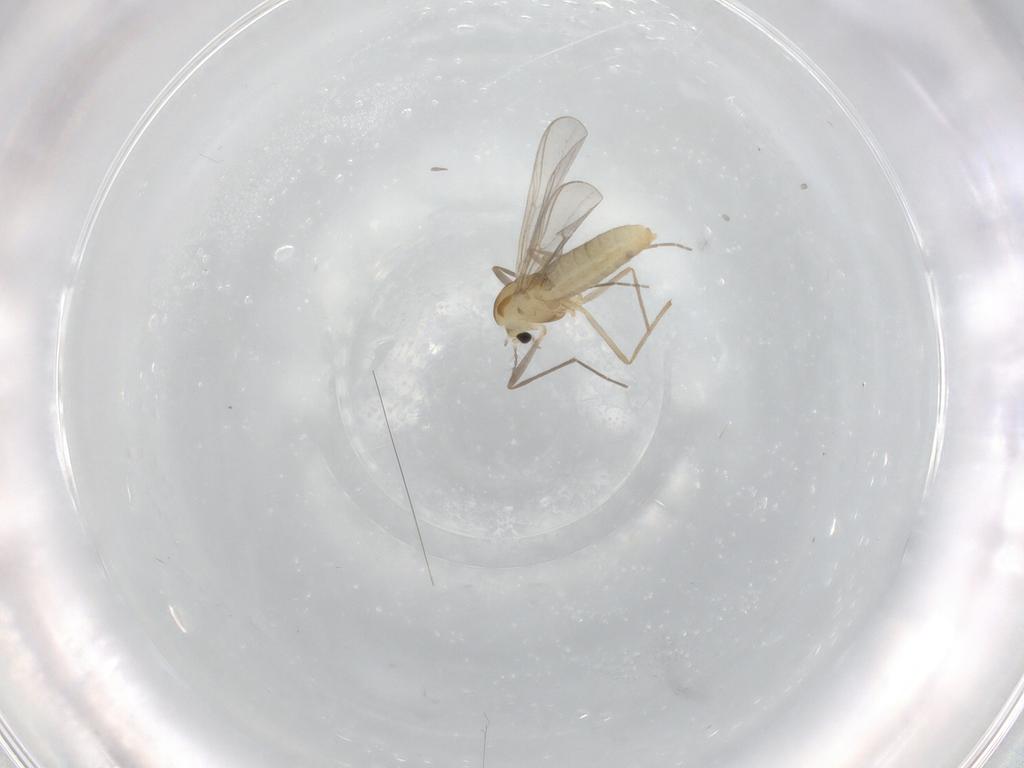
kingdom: Animalia
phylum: Arthropoda
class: Insecta
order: Diptera
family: Chironomidae
